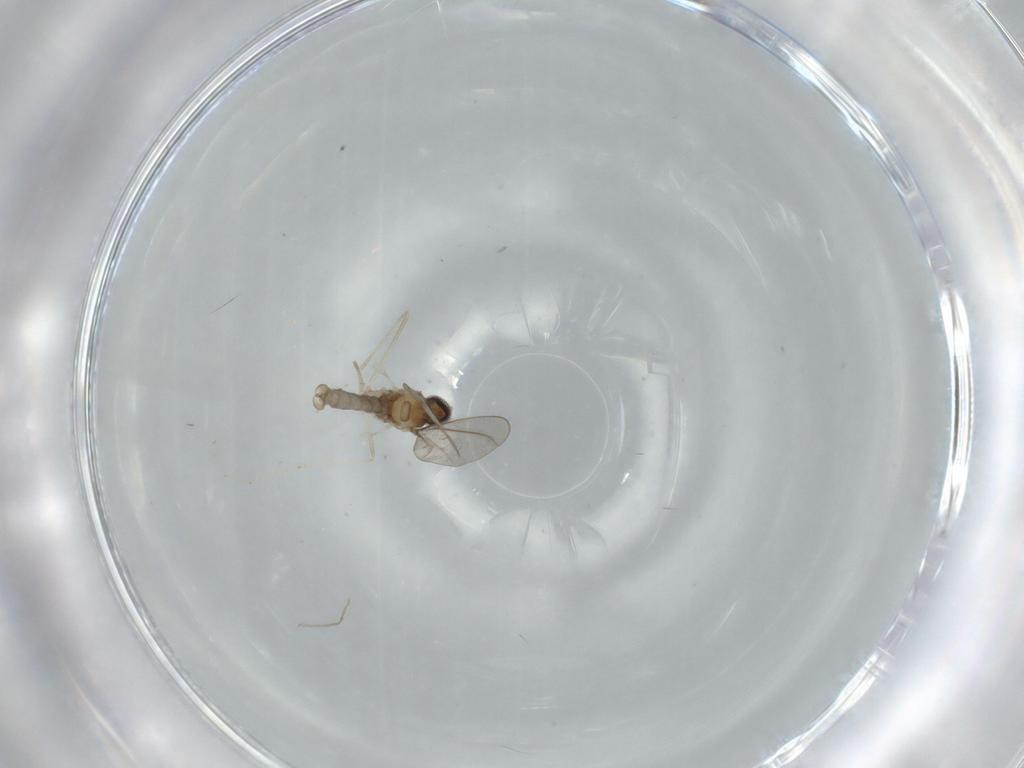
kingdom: Animalia
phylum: Arthropoda
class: Insecta
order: Diptera
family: Cecidomyiidae
